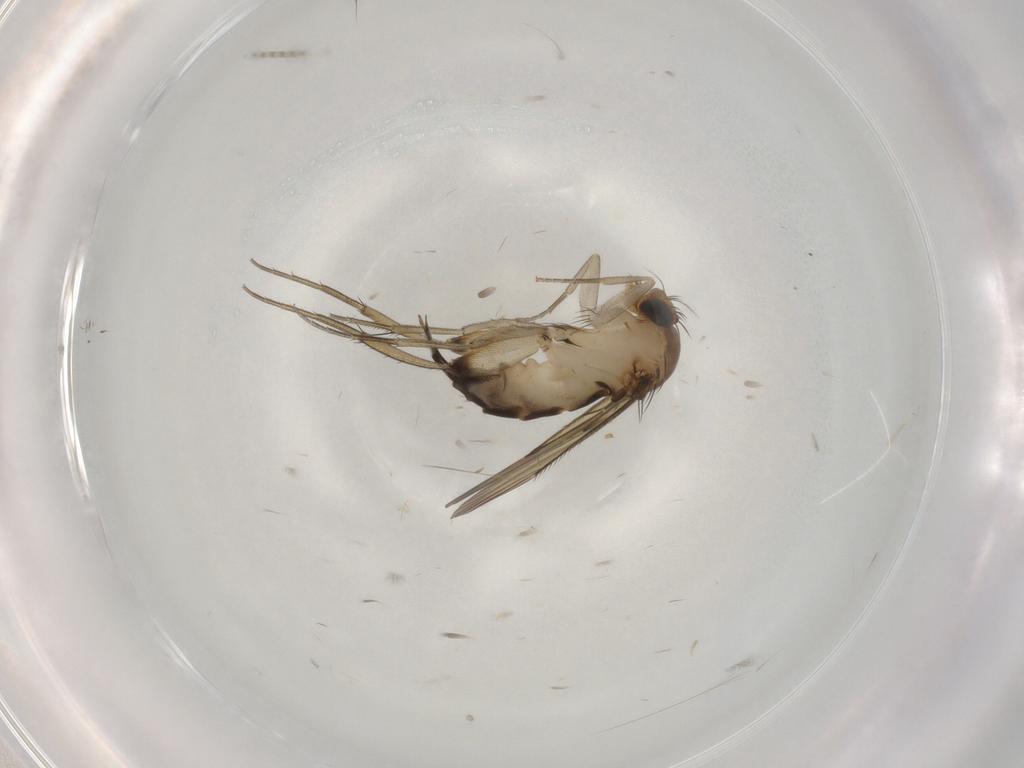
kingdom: Animalia
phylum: Arthropoda
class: Insecta
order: Diptera
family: Phoridae
